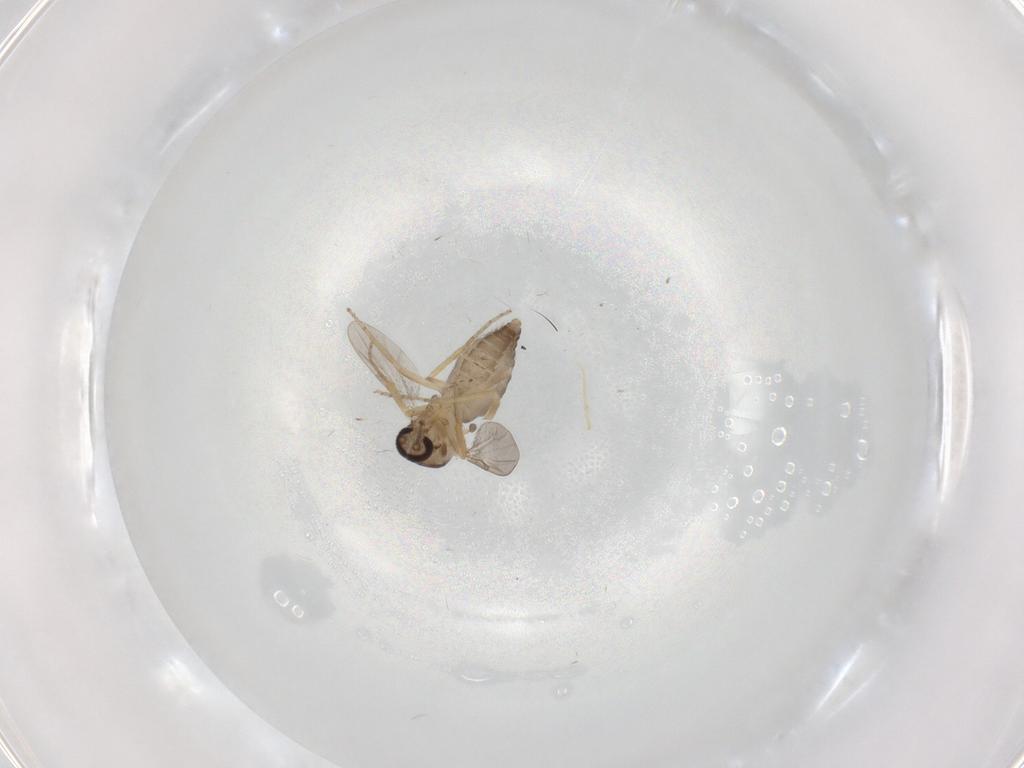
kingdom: Animalia
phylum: Arthropoda
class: Insecta
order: Diptera
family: Ceratopogonidae
